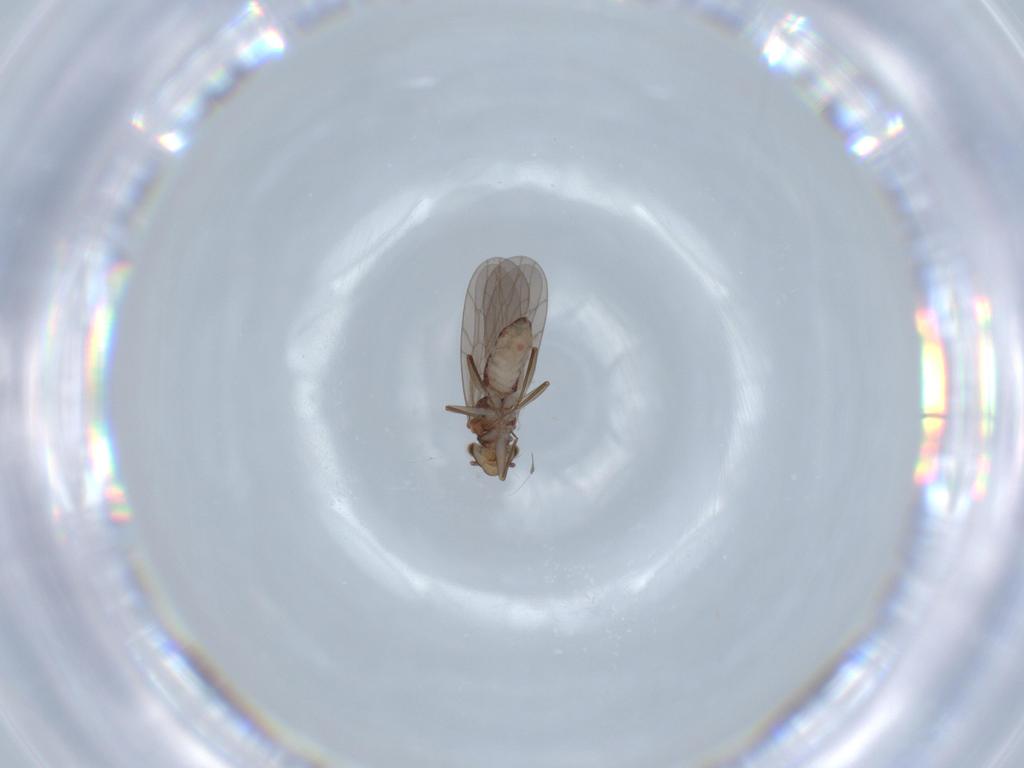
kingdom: Animalia
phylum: Arthropoda
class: Insecta
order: Psocodea
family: Lepidopsocidae
